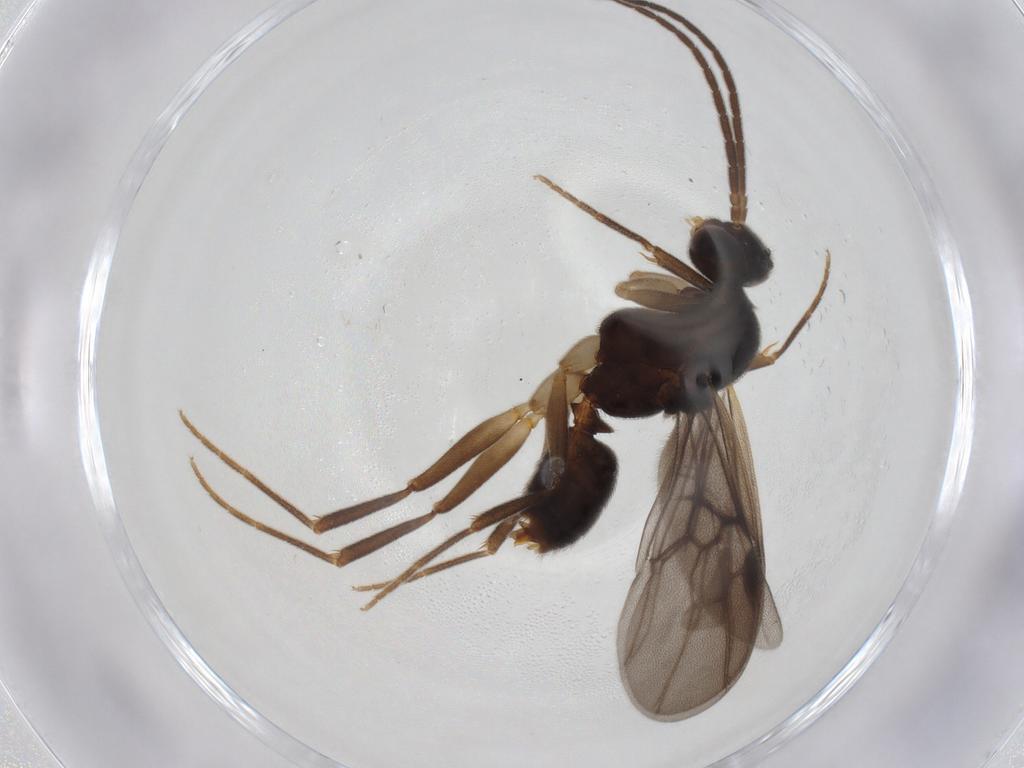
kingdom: Animalia
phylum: Arthropoda
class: Insecta
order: Hymenoptera
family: Formicidae
